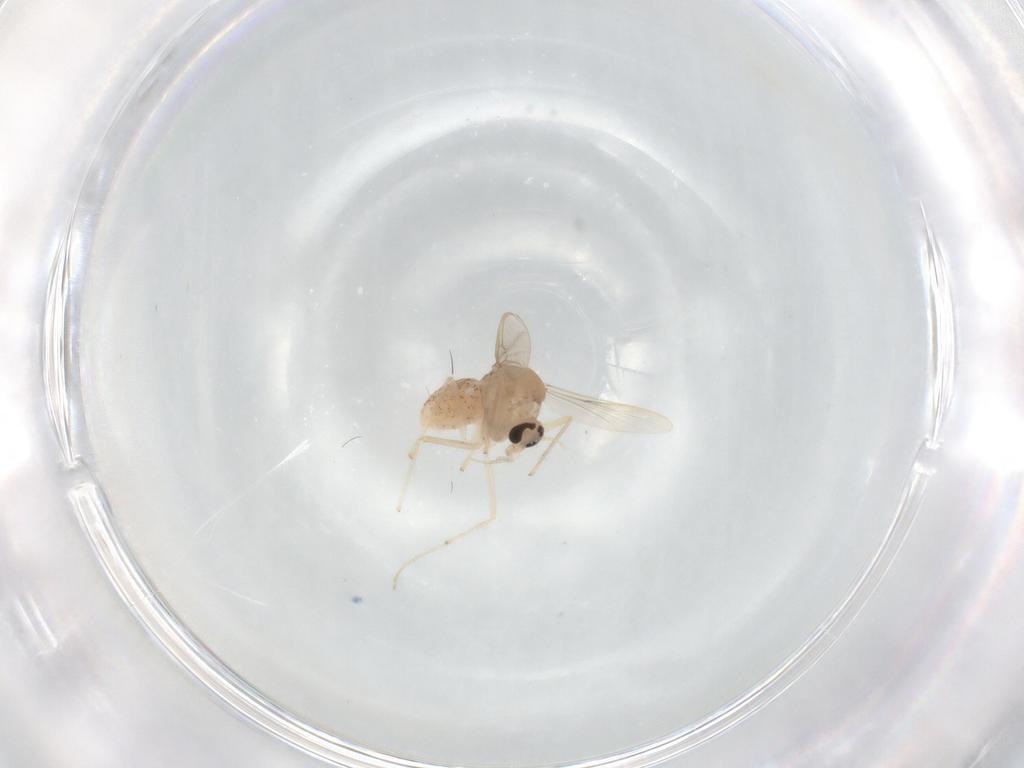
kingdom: Animalia
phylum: Arthropoda
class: Insecta
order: Diptera
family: Chironomidae
